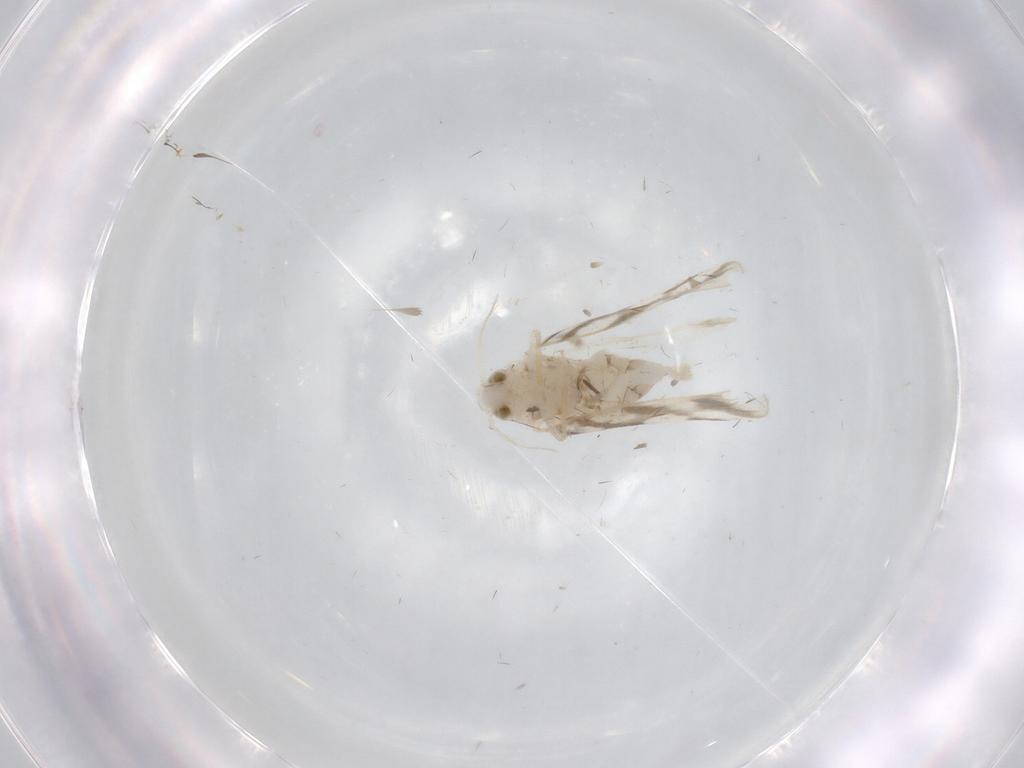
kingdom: Animalia
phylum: Arthropoda
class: Insecta
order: Hemiptera
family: Aleyrodidae
